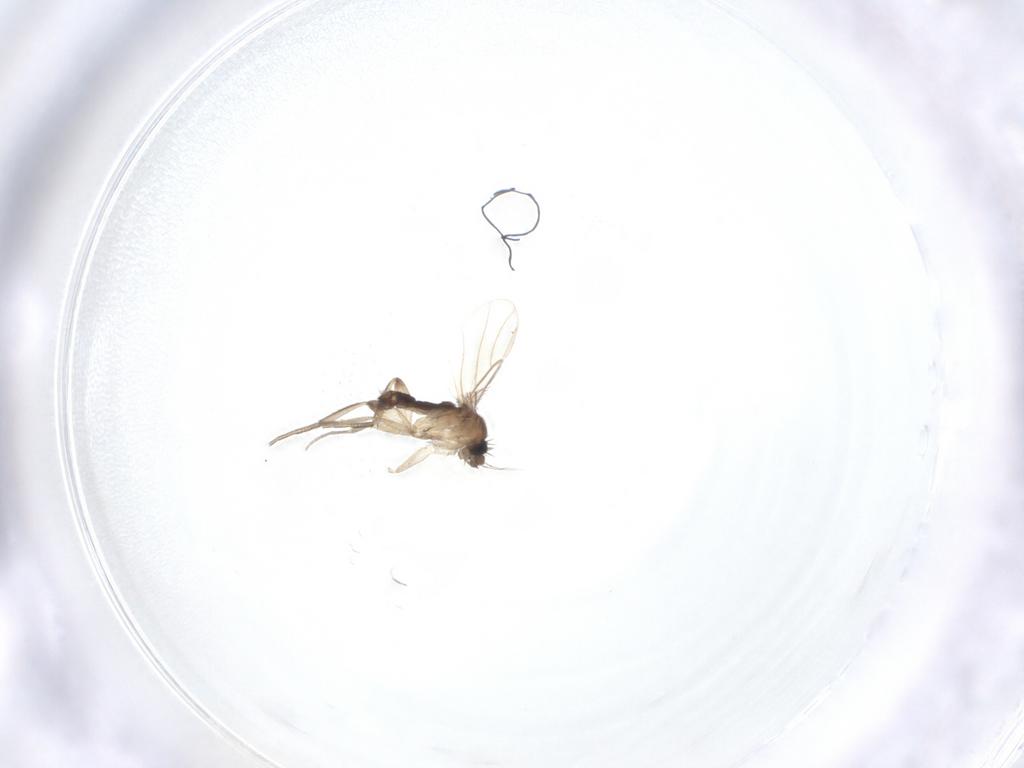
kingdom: Animalia
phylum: Arthropoda
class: Insecta
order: Diptera
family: Phoridae
